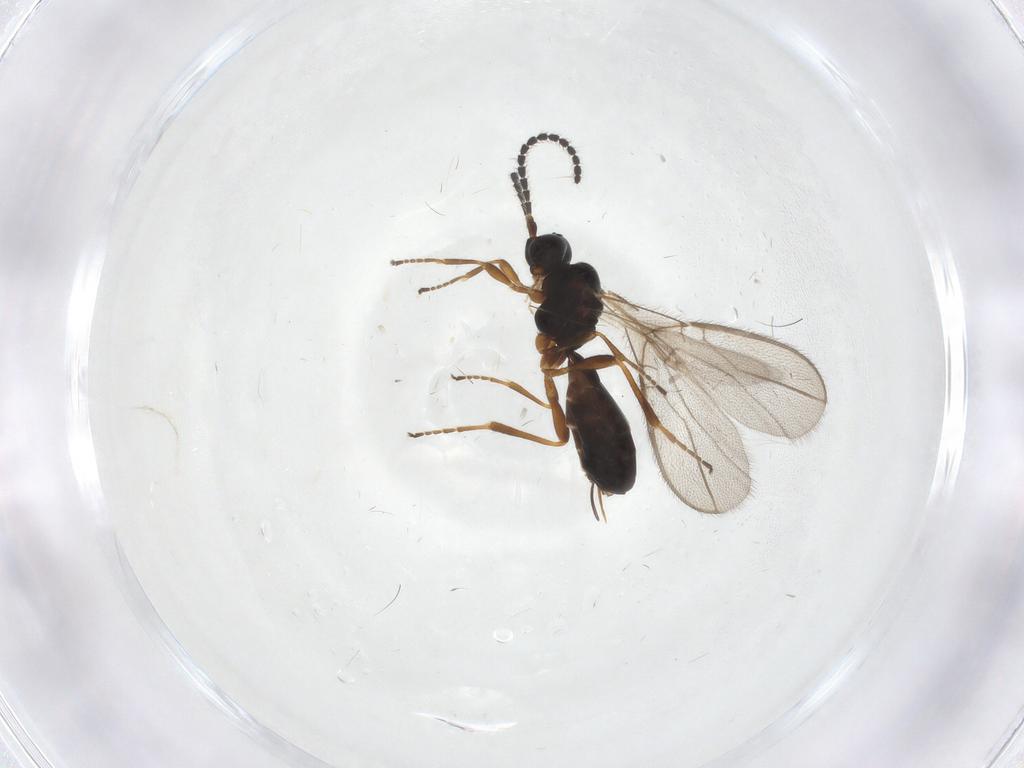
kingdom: Animalia
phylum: Arthropoda
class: Insecta
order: Hymenoptera
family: Braconidae
